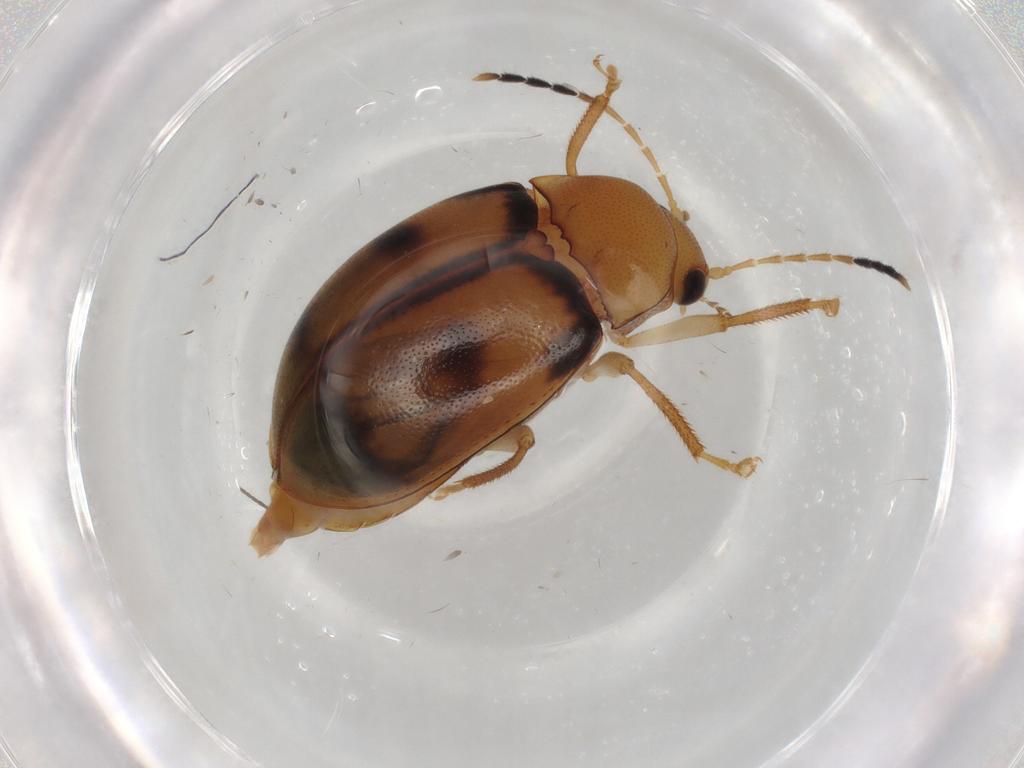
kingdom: Animalia
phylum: Arthropoda
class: Insecta
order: Coleoptera
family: Ptilodactylidae
